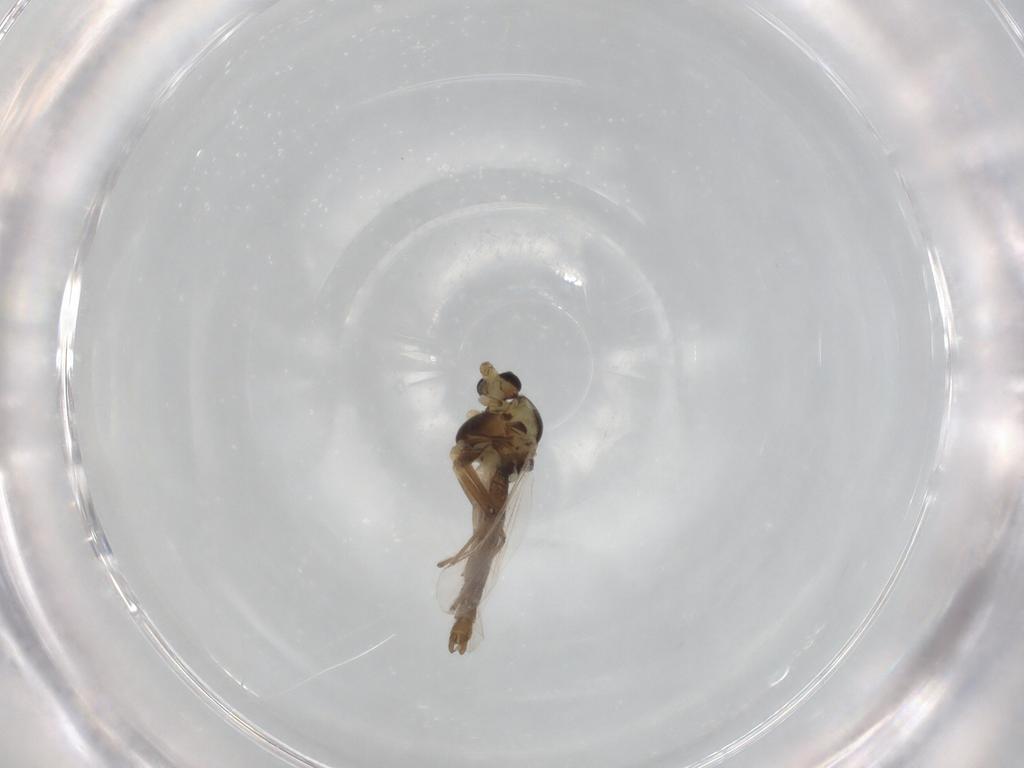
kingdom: Animalia
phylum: Arthropoda
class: Insecta
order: Diptera
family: Chironomidae
